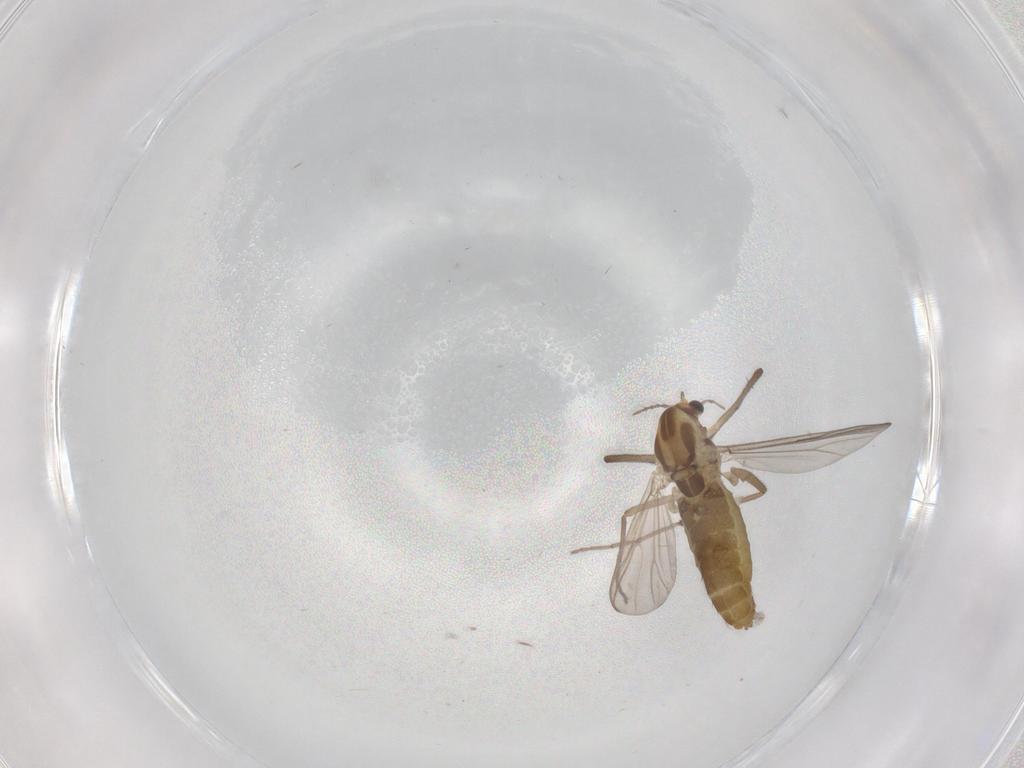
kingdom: Animalia
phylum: Arthropoda
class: Insecta
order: Diptera
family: Chironomidae
